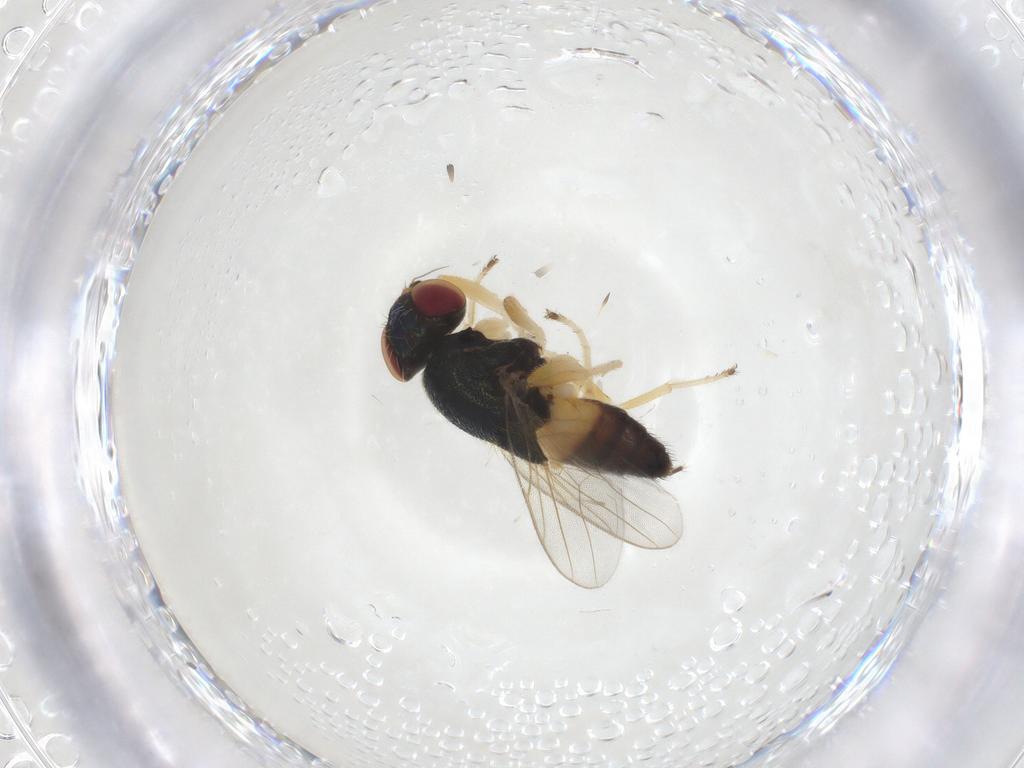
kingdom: Animalia
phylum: Arthropoda
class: Insecta
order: Diptera
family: Chloropidae
